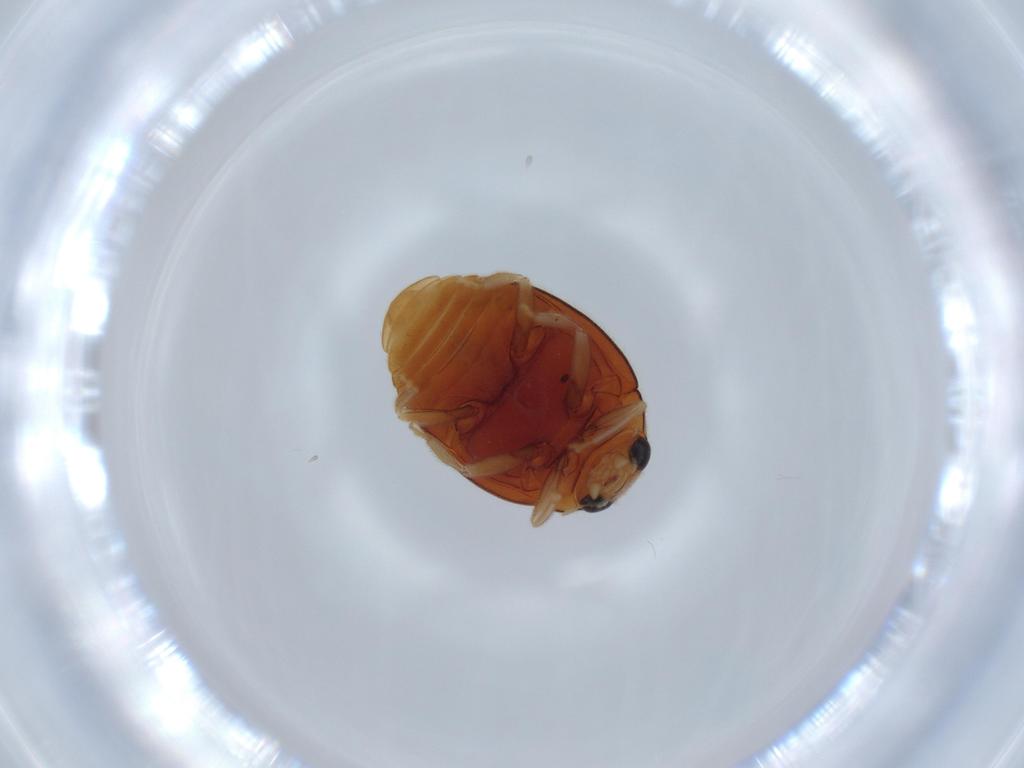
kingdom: Animalia
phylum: Arthropoda
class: Insecta
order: Coleoptera
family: Coccinellidae
